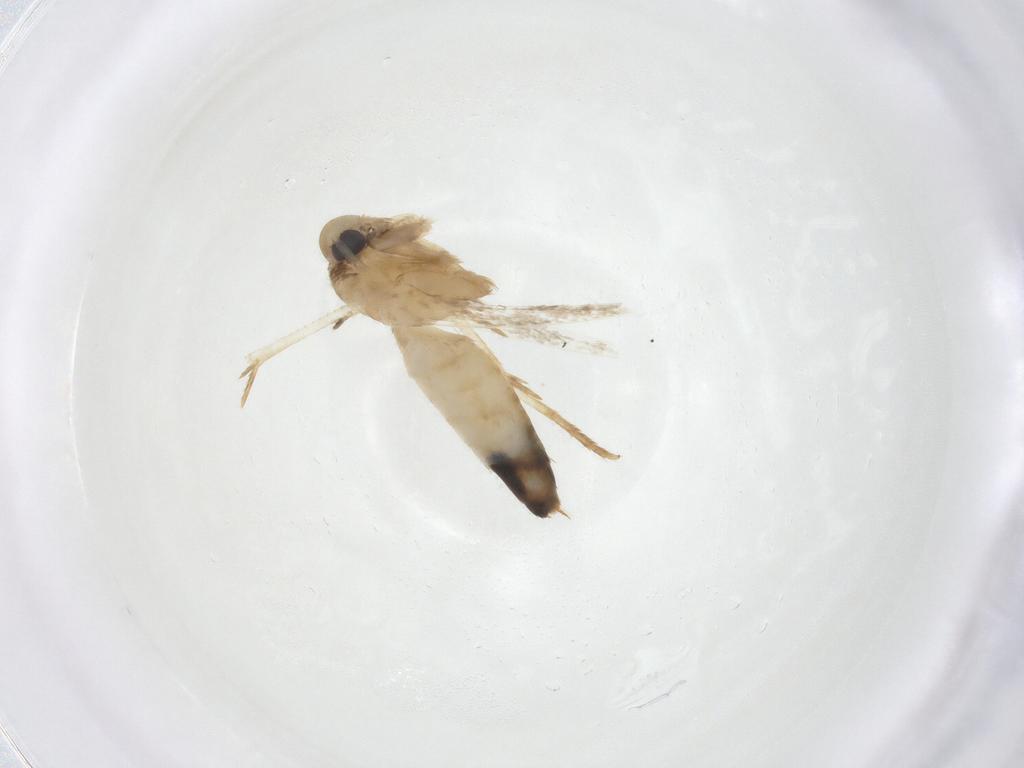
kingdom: Animalia
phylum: Arthropoda
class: Insecta
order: Lepidoptera
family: Cosmopterigidae
